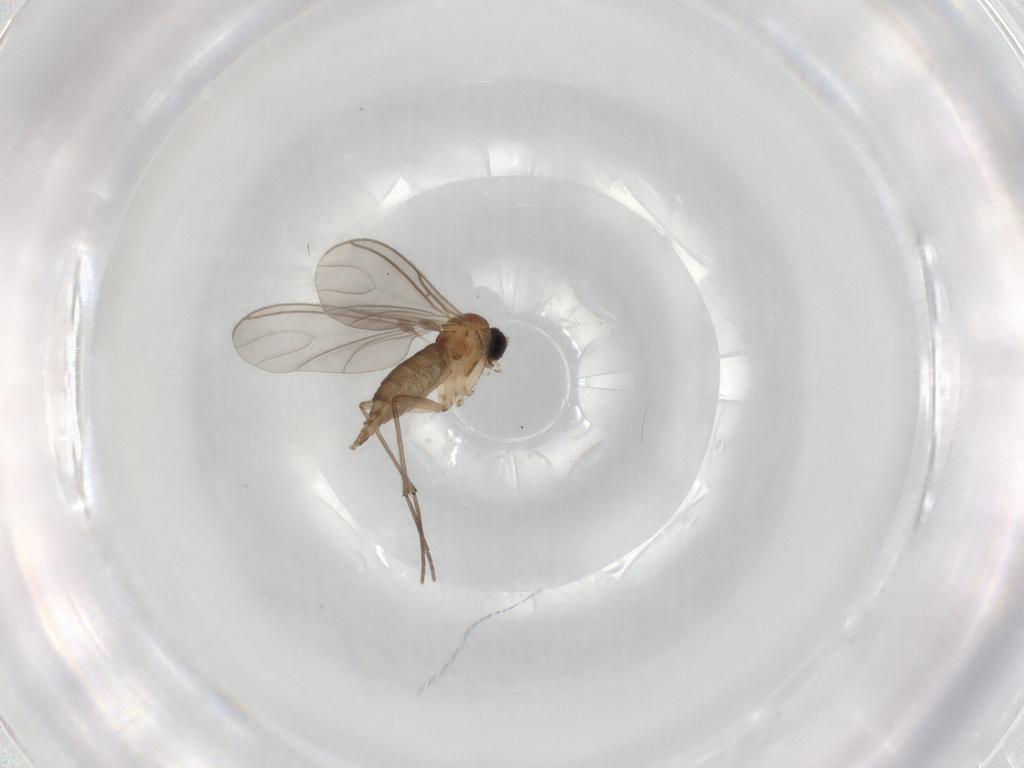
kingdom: Animalia
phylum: Arthropoda
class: Insecta
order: Diptera
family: Sciaridae
